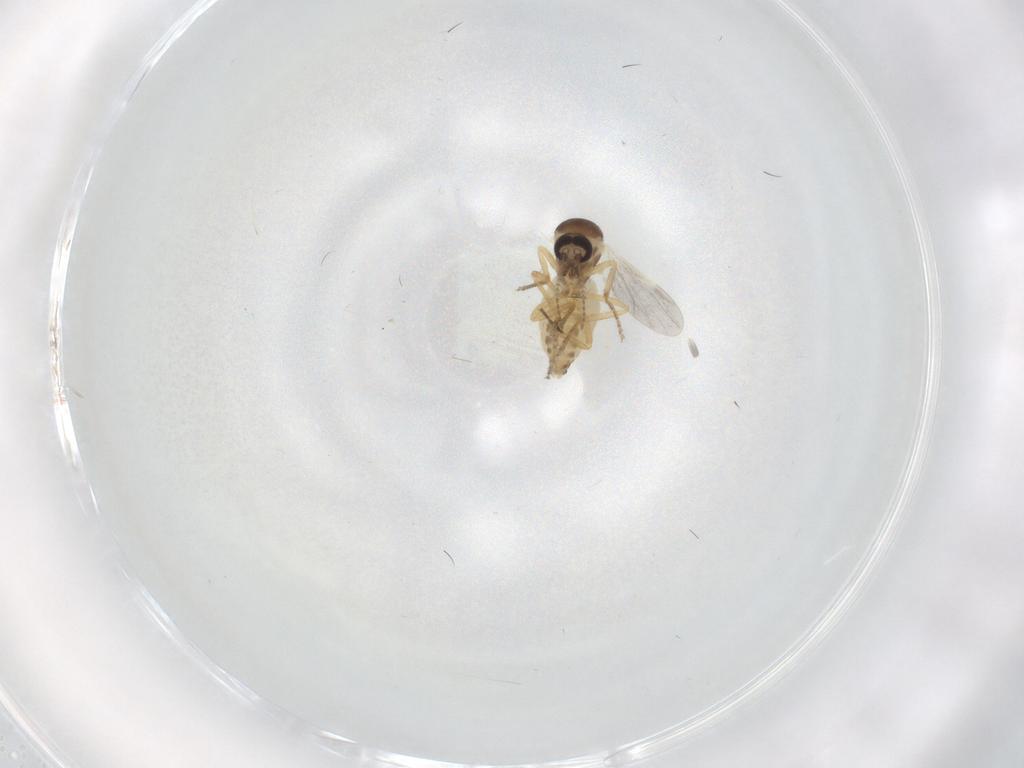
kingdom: Animalia
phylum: Arthropoda
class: Insecta
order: Diptera
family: Ceratopogonidae
